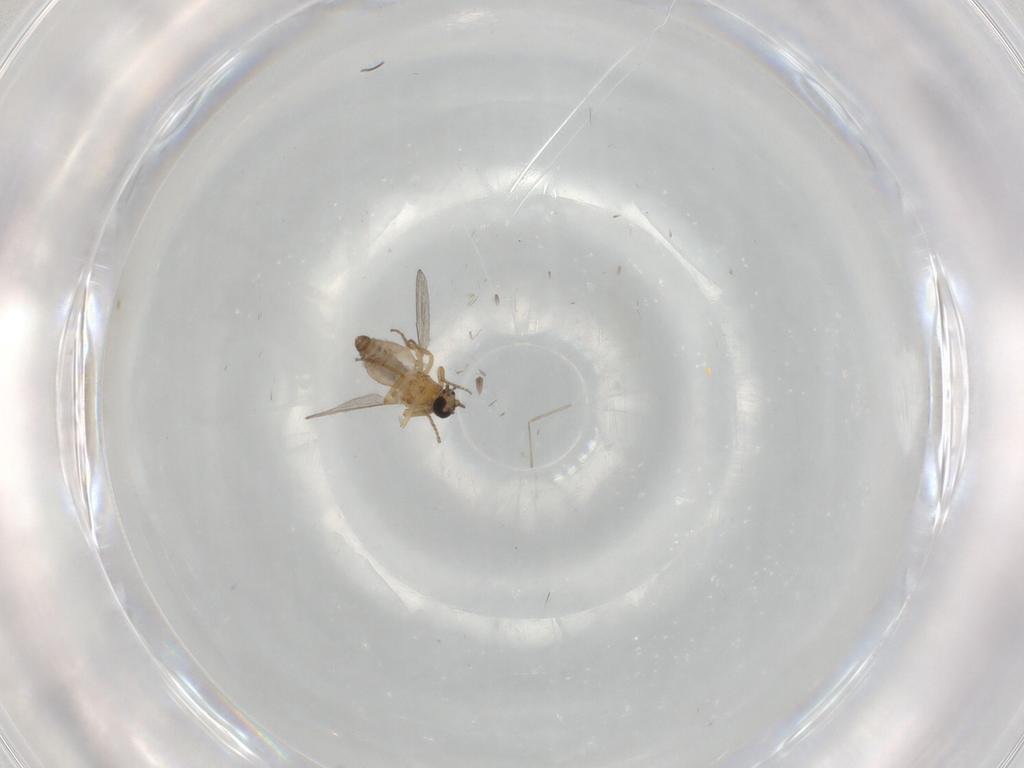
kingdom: Animalia
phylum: Arthropoda
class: Insecta
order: Diptera
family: Ceratopogonidae
